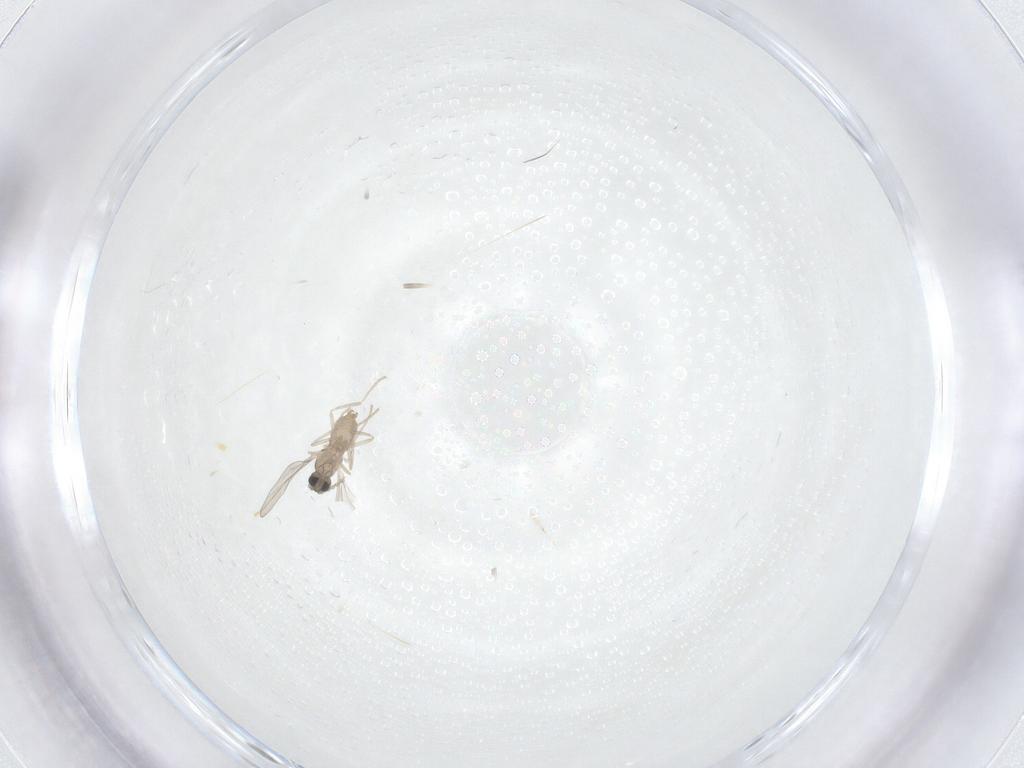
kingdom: Animalia
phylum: Arthropoda
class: Insecta
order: Diptera
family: Cecidomyiidae
